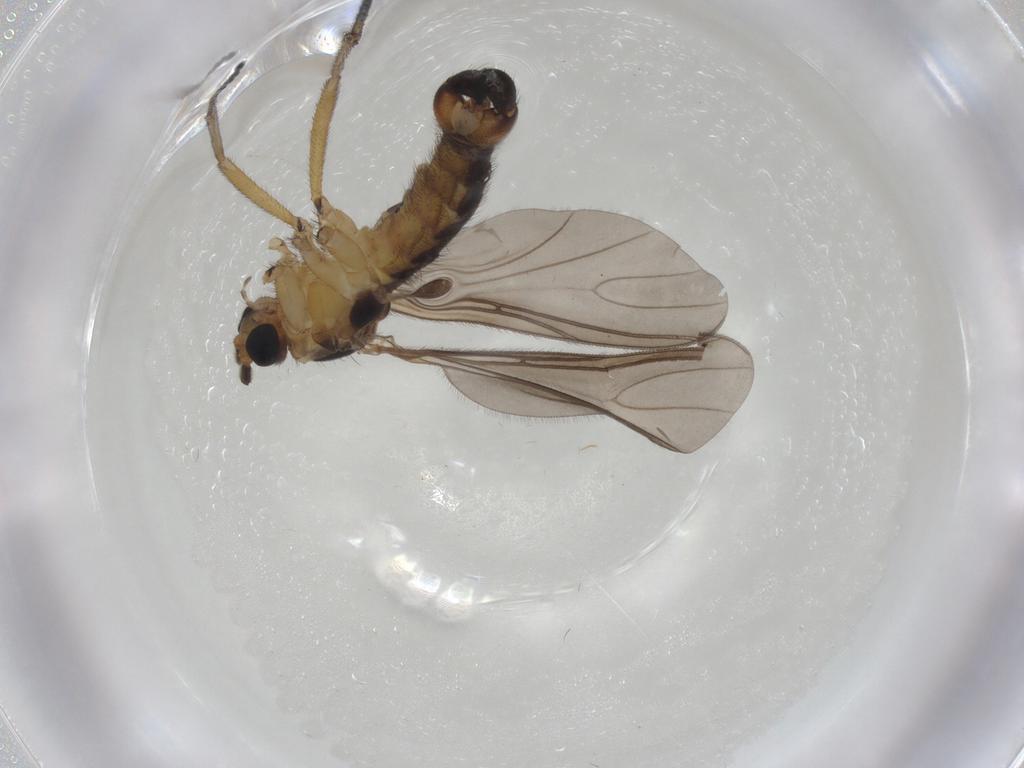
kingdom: Animalia
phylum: Arthropoda
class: Insecta
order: Diptera
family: Sciaridae
